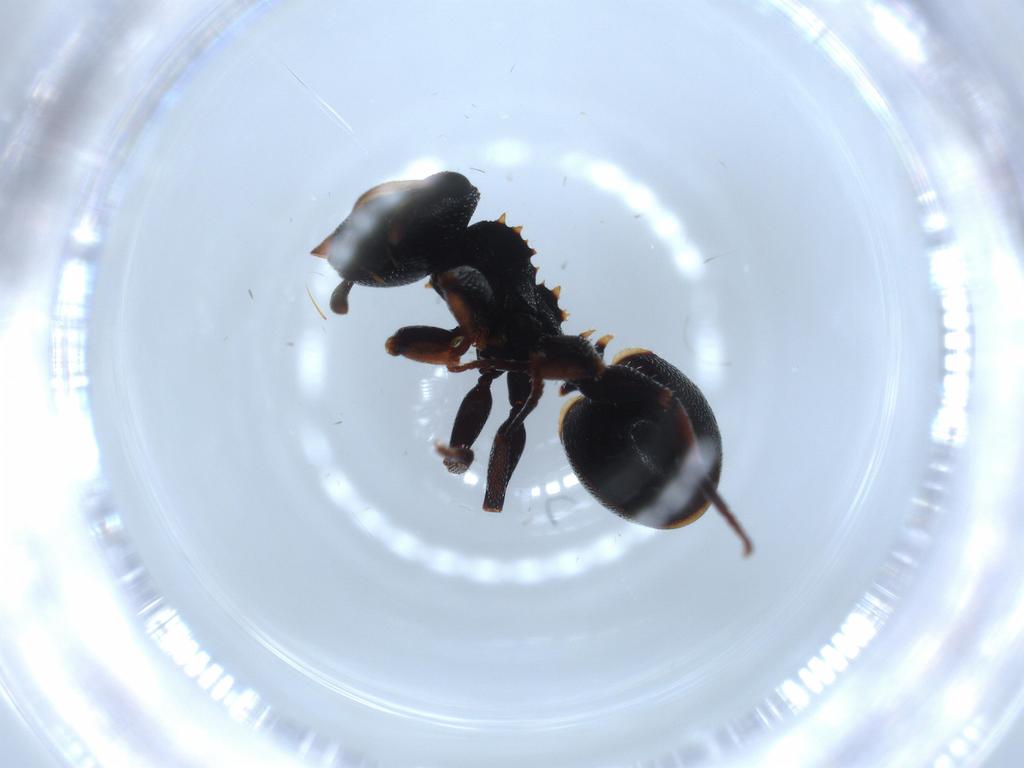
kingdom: Animalia
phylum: Arthropoda
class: Insecta
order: Hymenoptera
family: Formicidae
